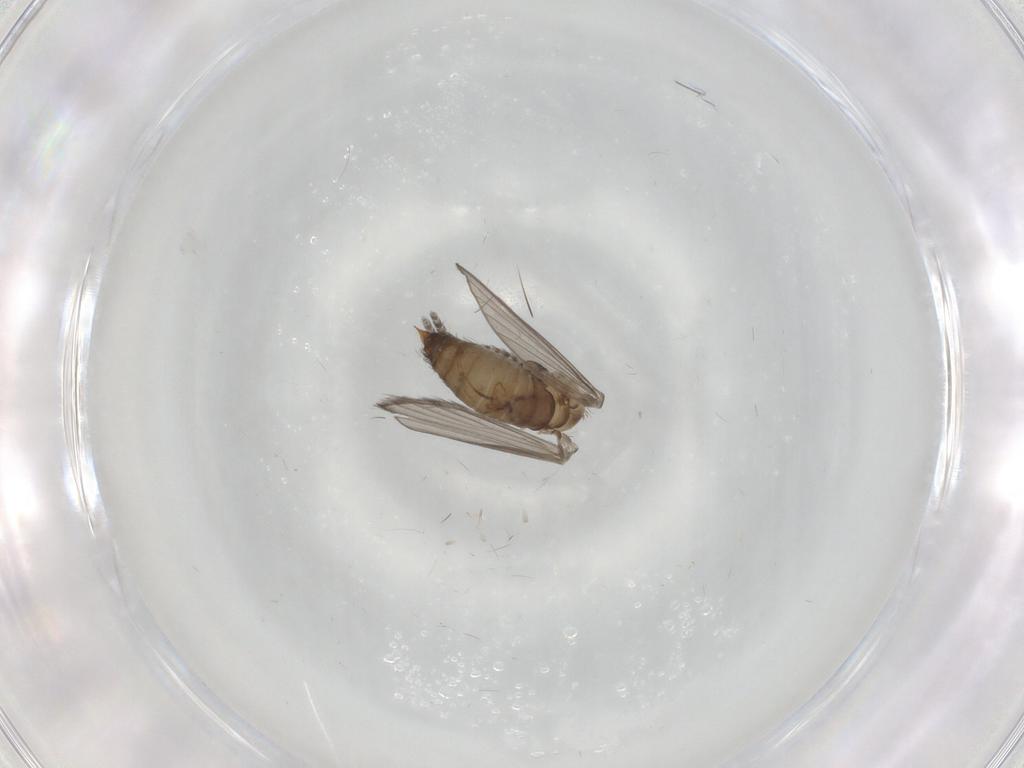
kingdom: Animalia
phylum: Arthropoda
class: Insecta
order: Diptera
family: Psychodidae
